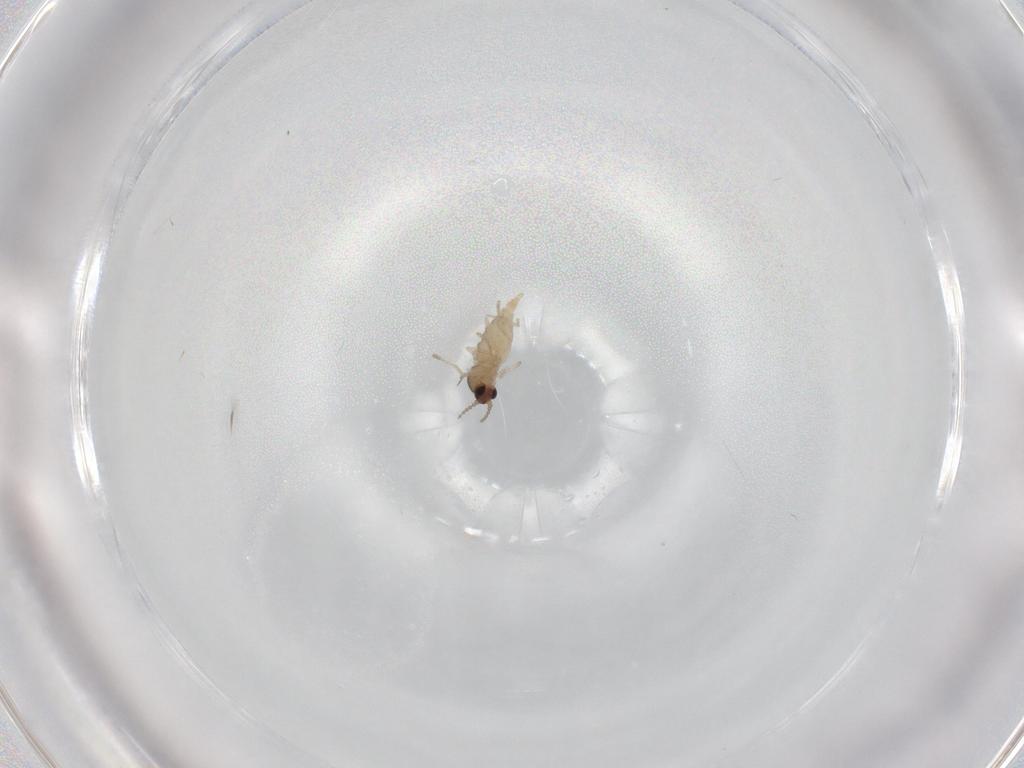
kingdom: Animalia
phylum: Arthropoda
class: Insecta
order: Diptera
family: Cecidomyiidae
